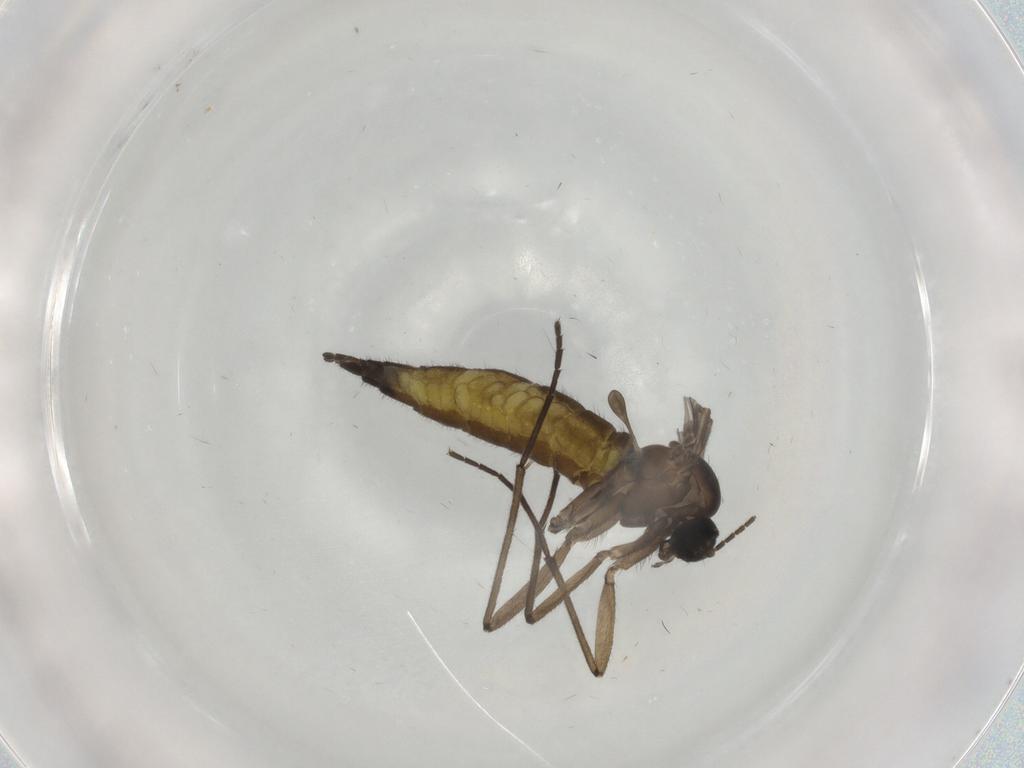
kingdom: Animalia
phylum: Arthropoda
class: Insecta
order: Diptera
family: Sciaridae
